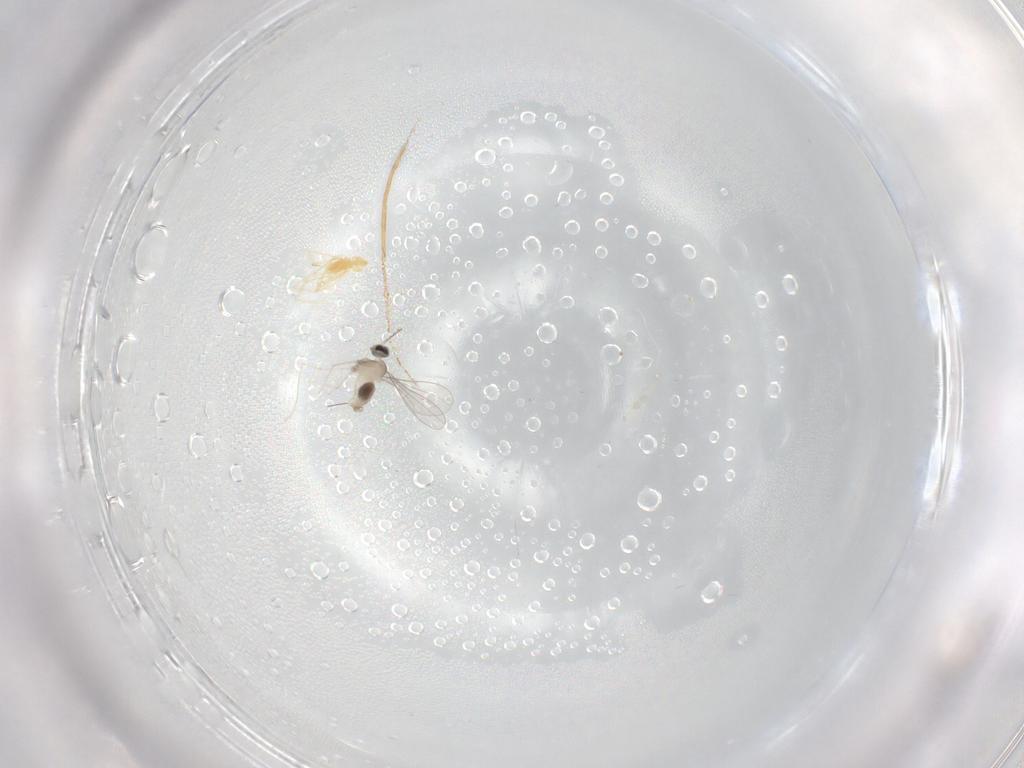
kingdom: Animalia
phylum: Arthropoda
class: Insecta
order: Diptera
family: Cecidomyiidae
